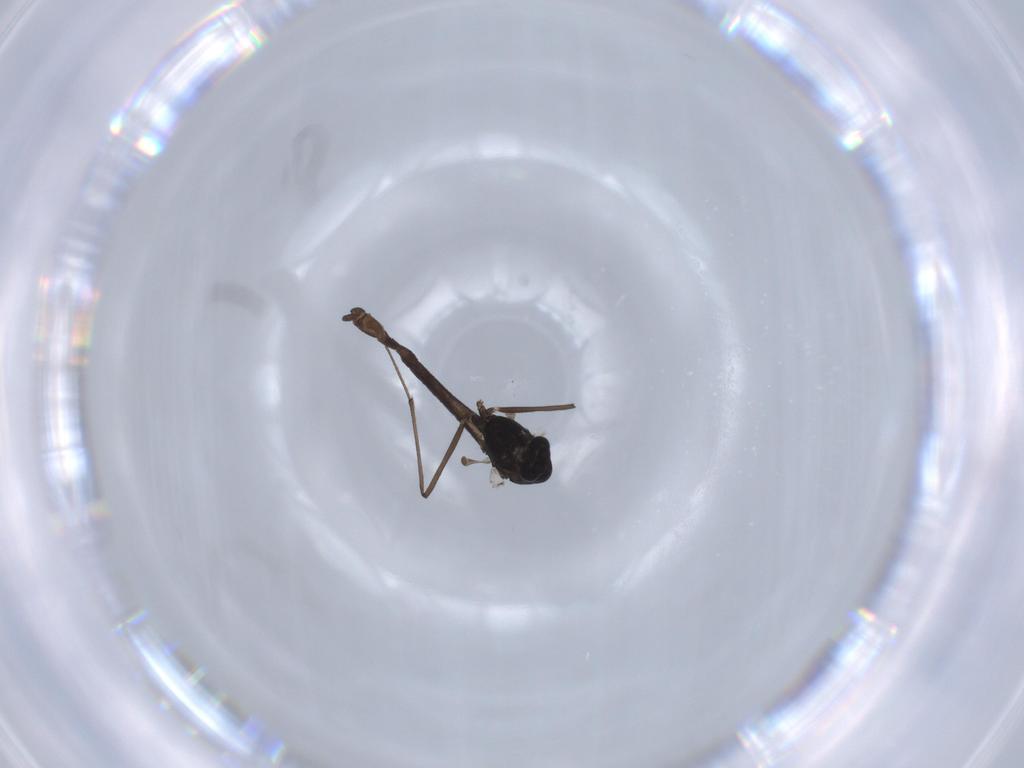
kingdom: Animalia
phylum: Arthropoda
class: Insecta
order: Diptera
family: Chironomidae
